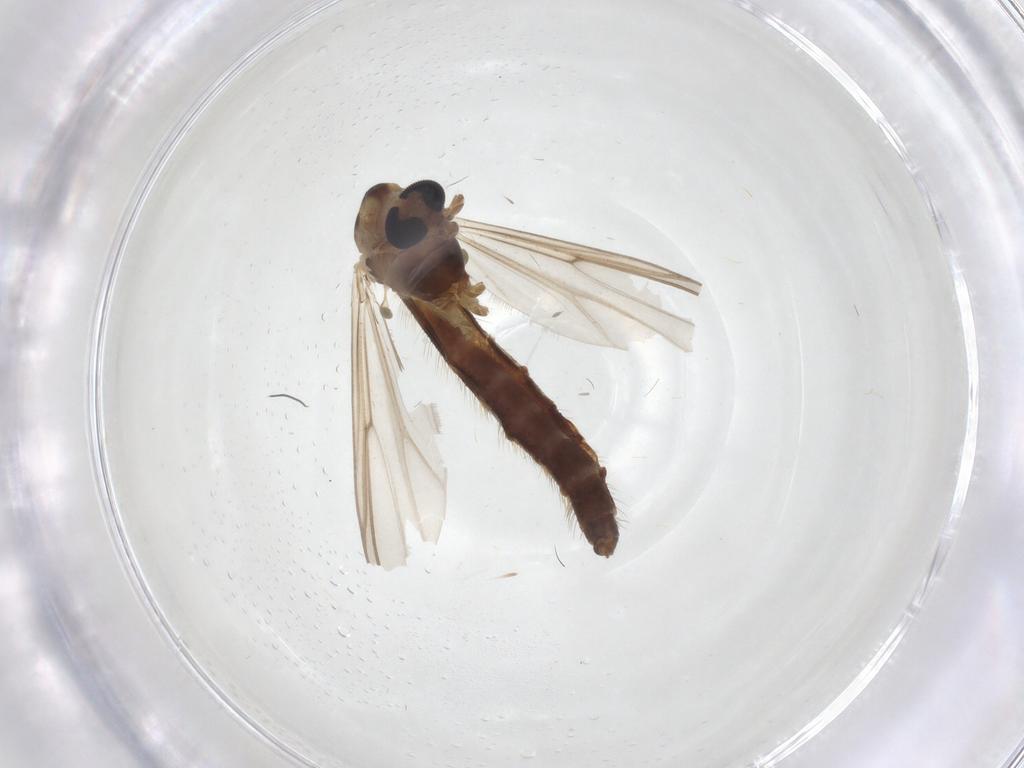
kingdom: Animalia
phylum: Arthropoda
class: Insecta
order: Diptera
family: Chironomidae
